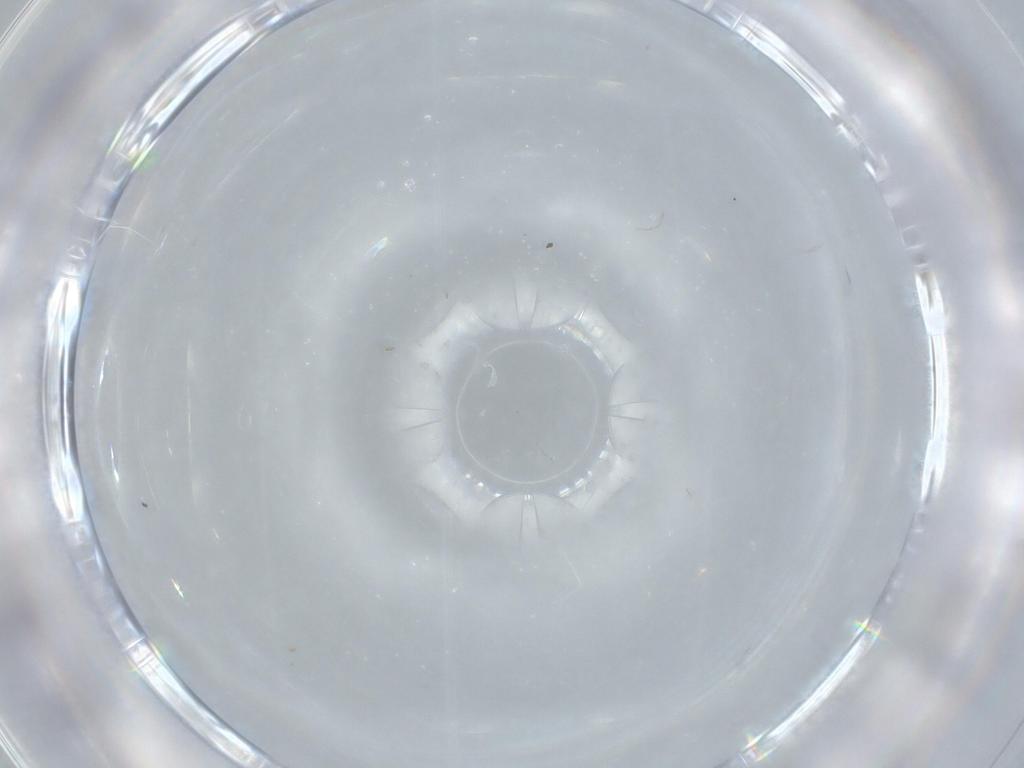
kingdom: Animalia
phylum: Arthropoda
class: Insecta
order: Diptera
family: Sciaridae
